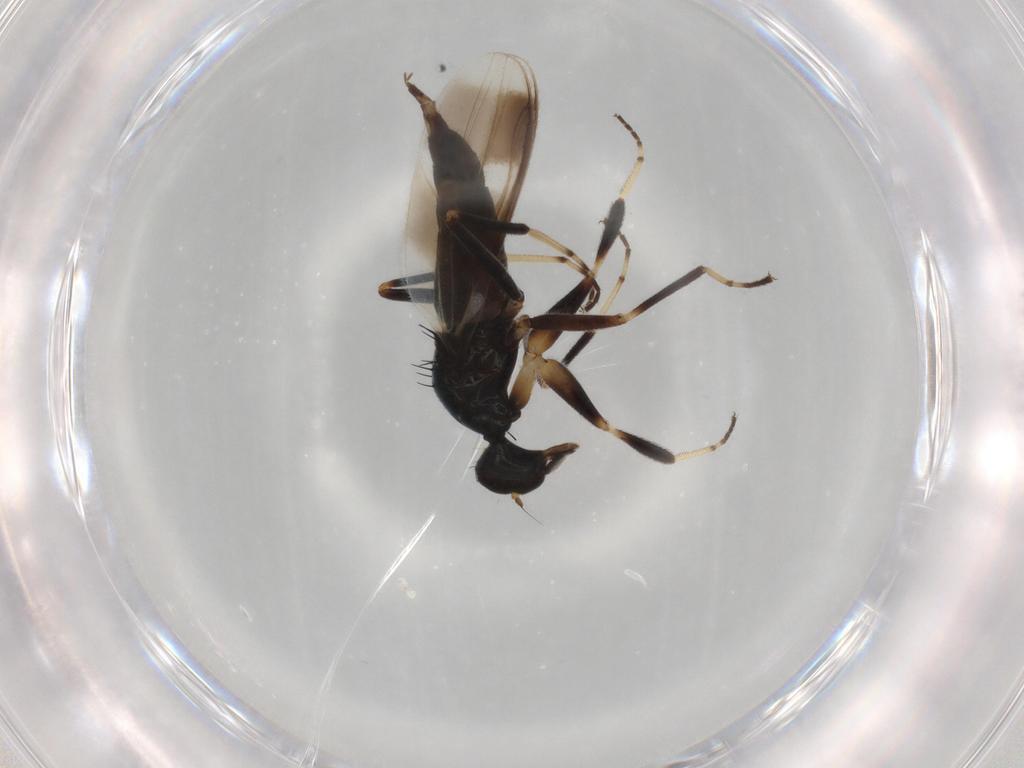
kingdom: Animalia
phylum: Arthropoda
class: Insecta
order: Diptera
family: Hybotidae
